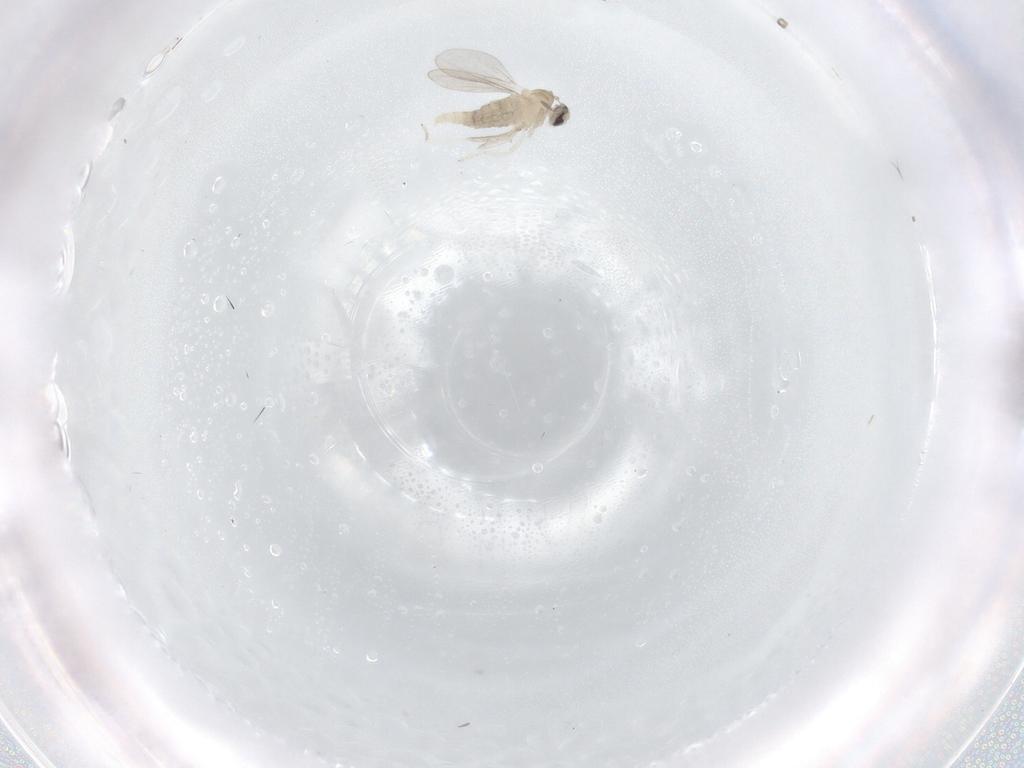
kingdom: Animalia
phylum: Arthropoda
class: Insecta
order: Diptera
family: Cecidomyiidae
